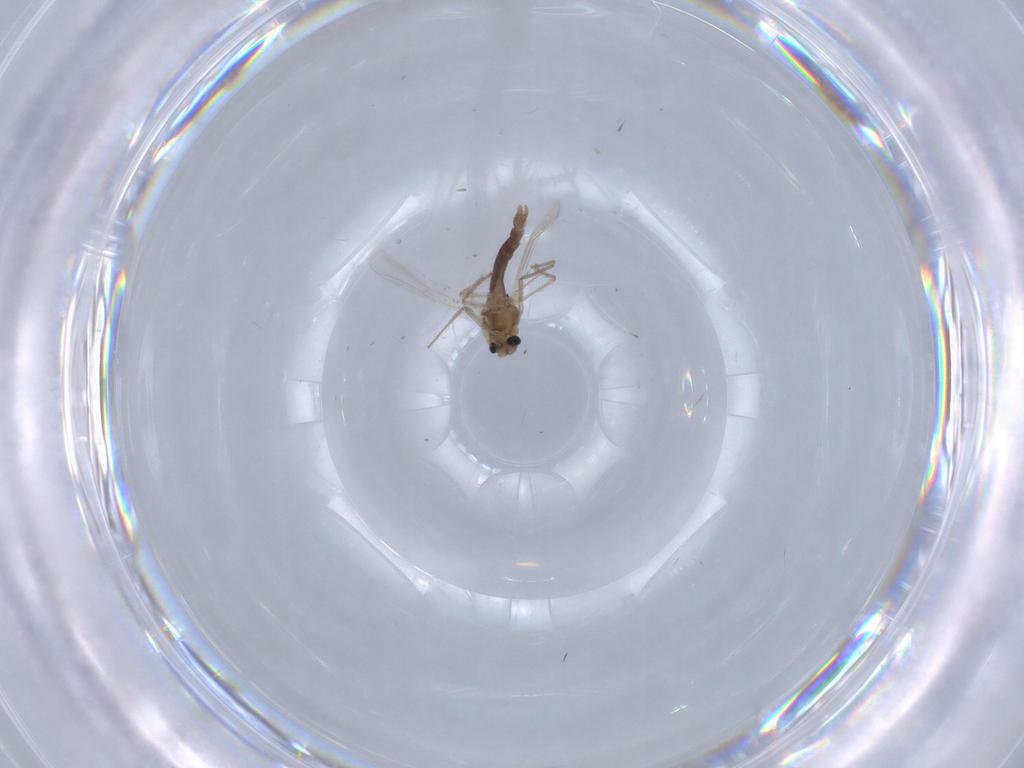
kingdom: Animalia
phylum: Arthropoda
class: Insecta
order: Diptera
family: Chironomidae
